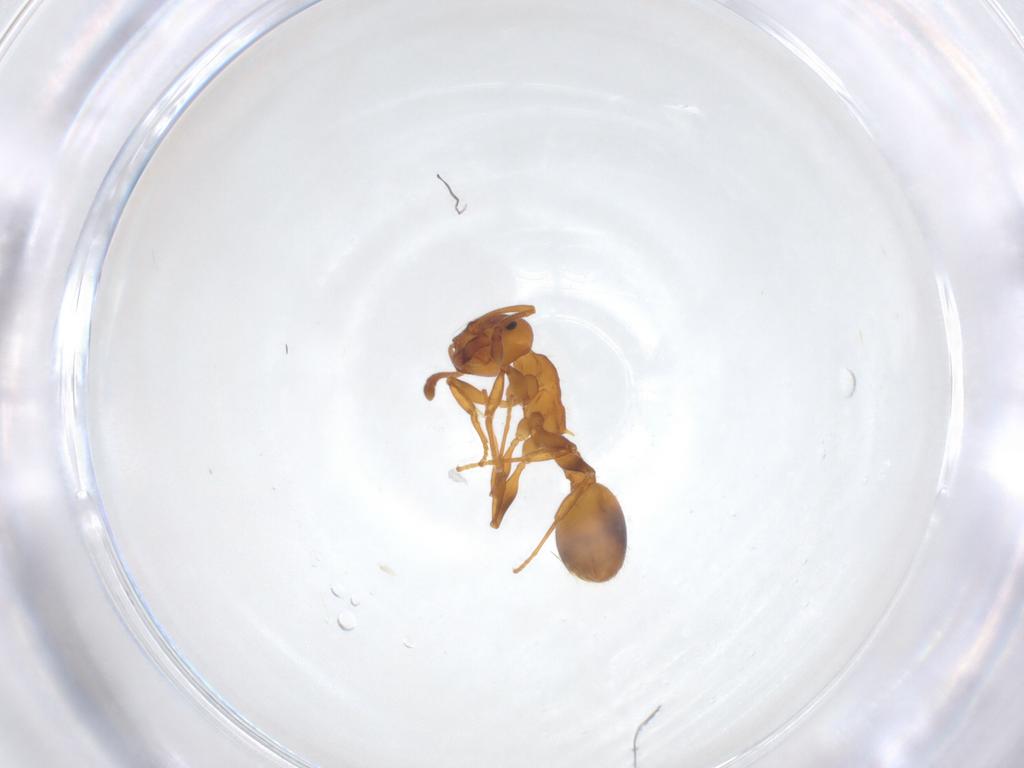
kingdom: Animalia
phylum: Arthropoda
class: Insecta
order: Hymenoptera
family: Formicidae
